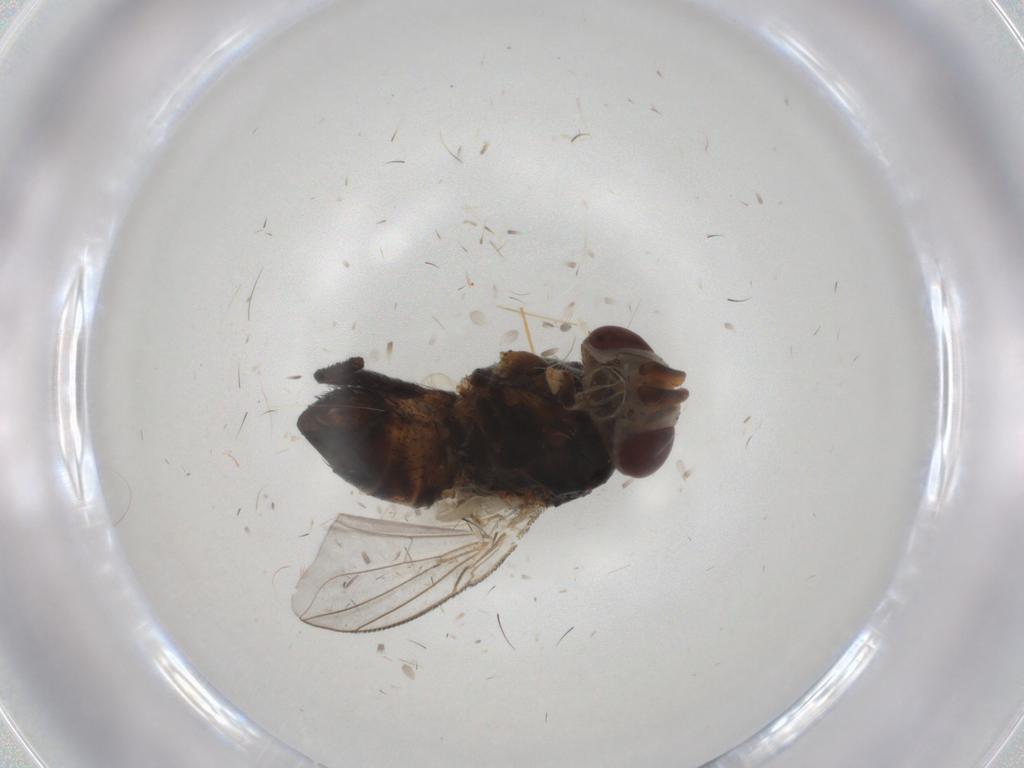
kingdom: Animalia
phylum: Arthropoda
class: Insecta
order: Diptera
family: Glossinidae
